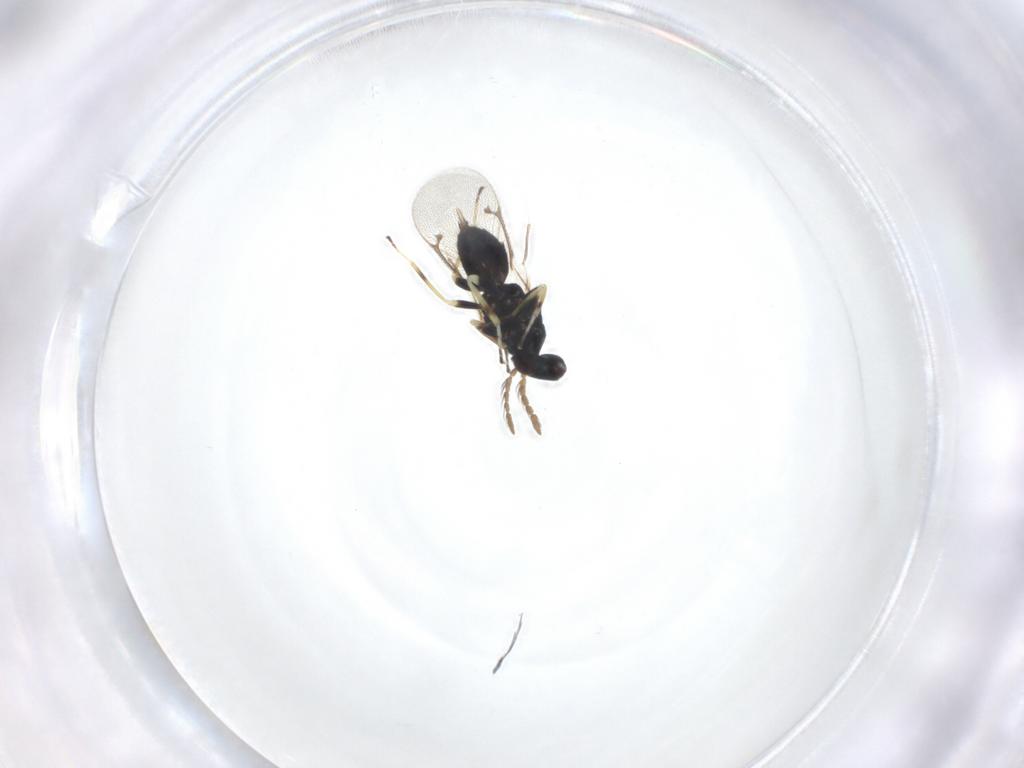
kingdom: Animalia
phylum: Arthropoda
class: Insecta
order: Hymenoptera
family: Eulophidae
